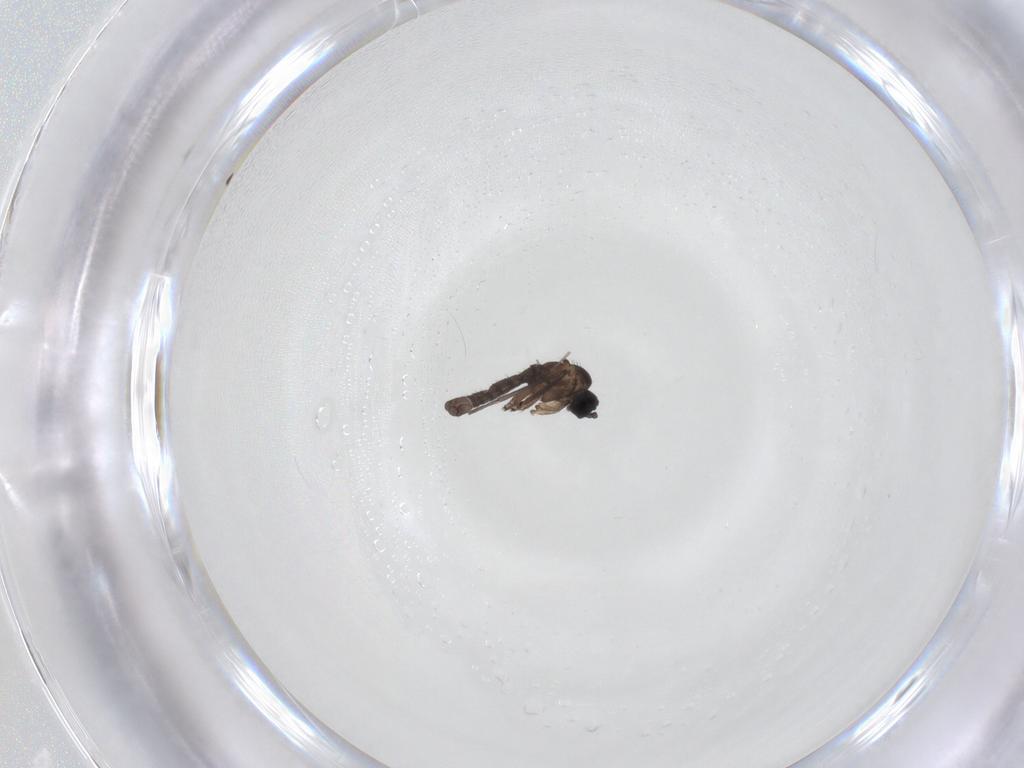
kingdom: Animalia
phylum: Arthropoda
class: Insecta
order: Diptera
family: Sciaridae
